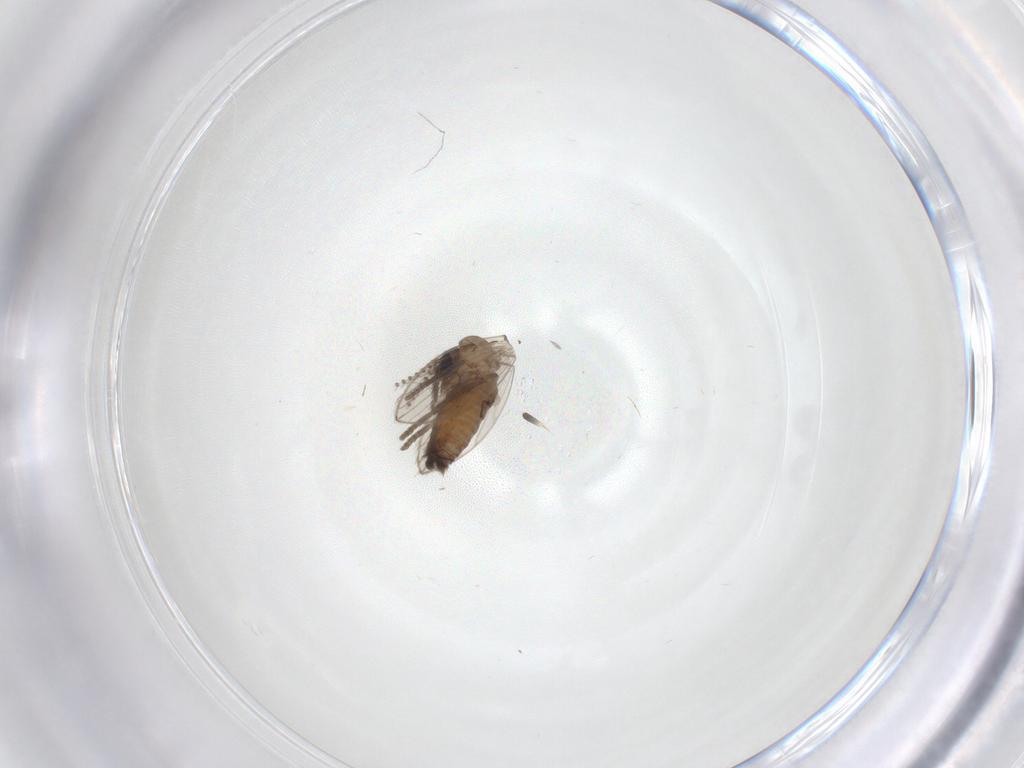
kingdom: Animalia
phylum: Arthropoda
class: Insecta
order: Diptera
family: Psychodidae
